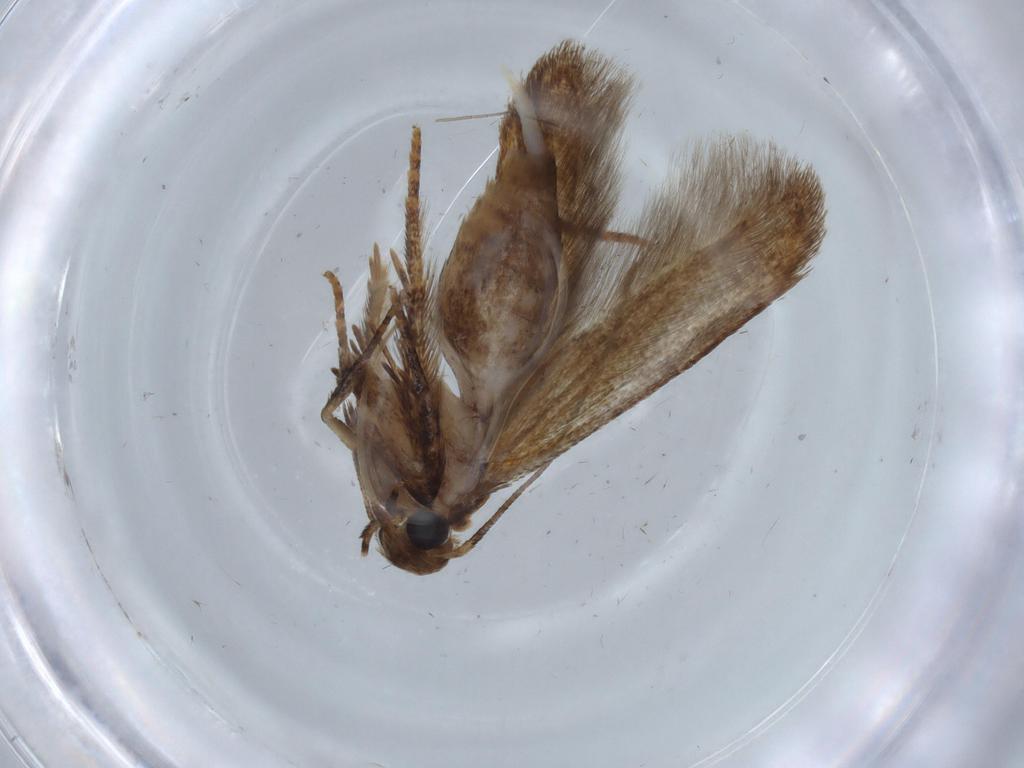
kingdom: Animalia
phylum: Arthropoda
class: Insecta
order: Lepidoptera
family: Blastobasidae
